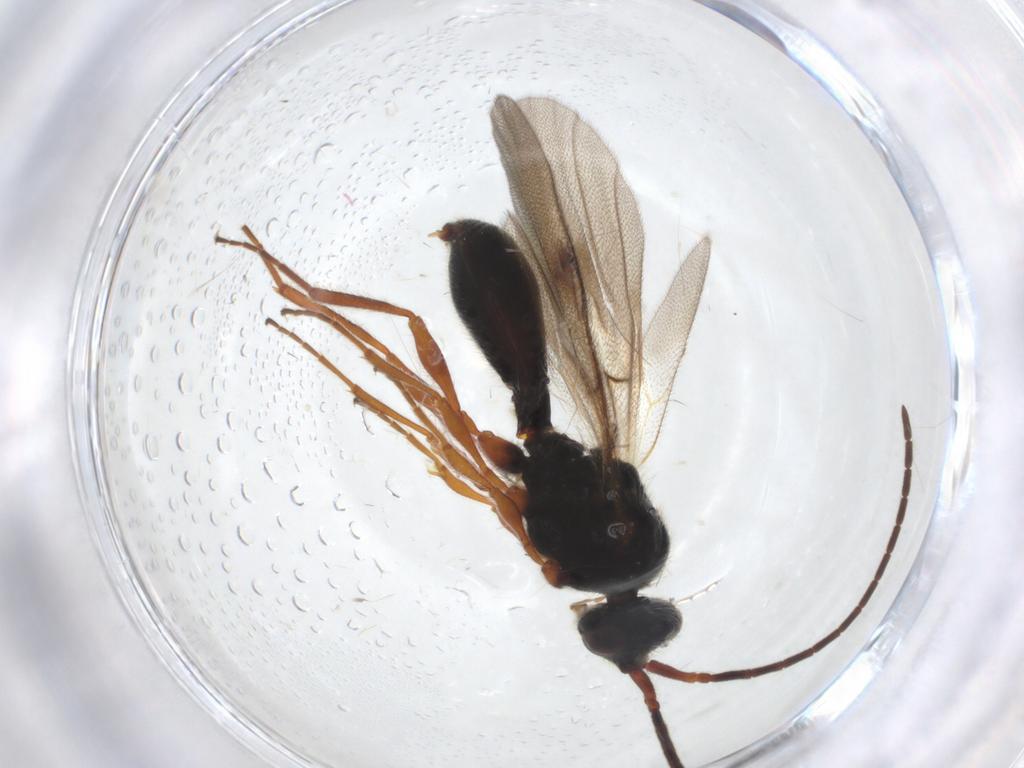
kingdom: Animalia
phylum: Arthropoda
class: Insecta
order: Hymenoptera
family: Diapriidae
